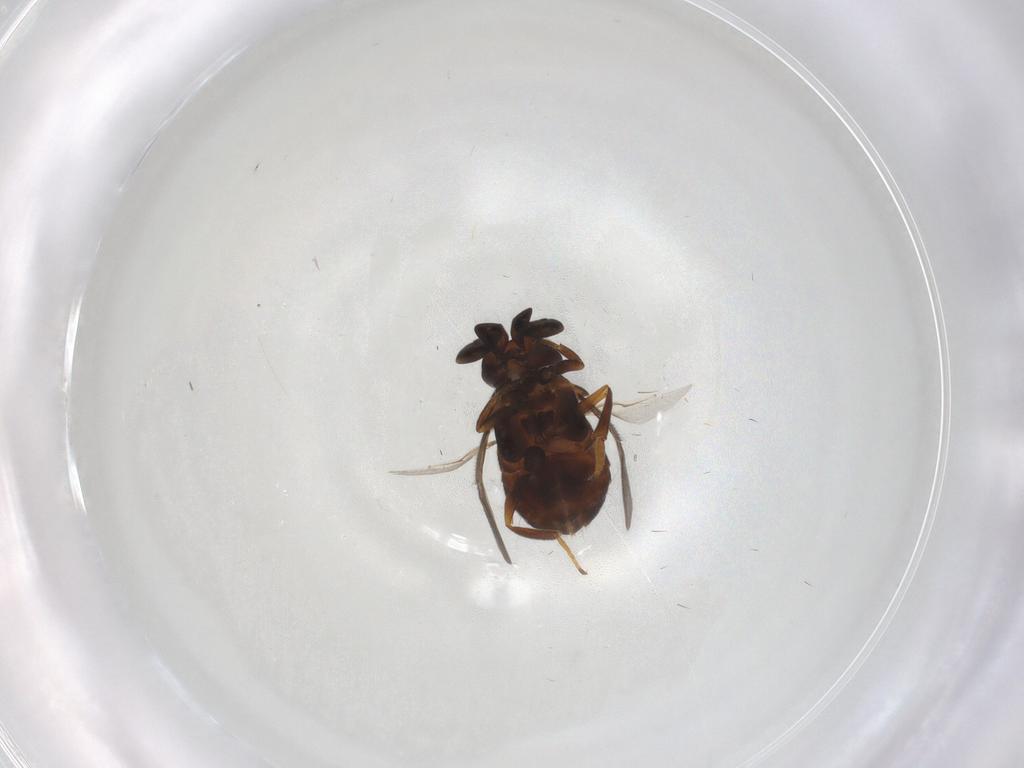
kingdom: Animalia
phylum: Arthropoda
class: Insecta
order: Hymenoptera
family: Encyrtidae
